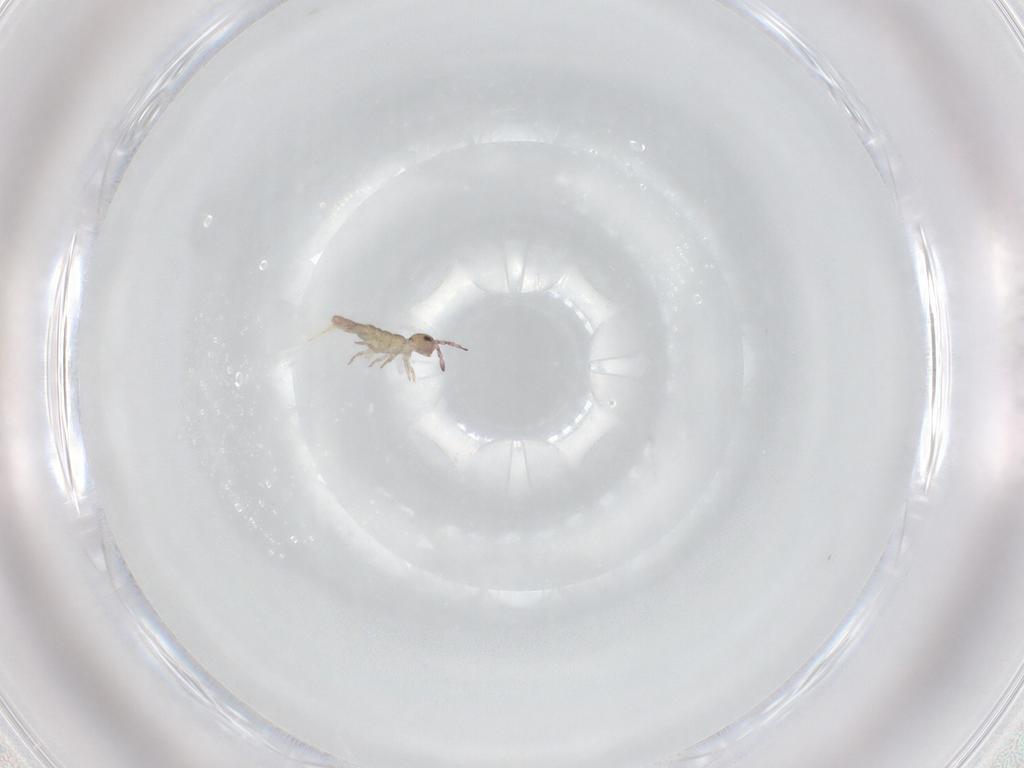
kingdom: Animalia
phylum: Arthropoda
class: Collembola
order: Entomobryomorpha
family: Isotomidae
